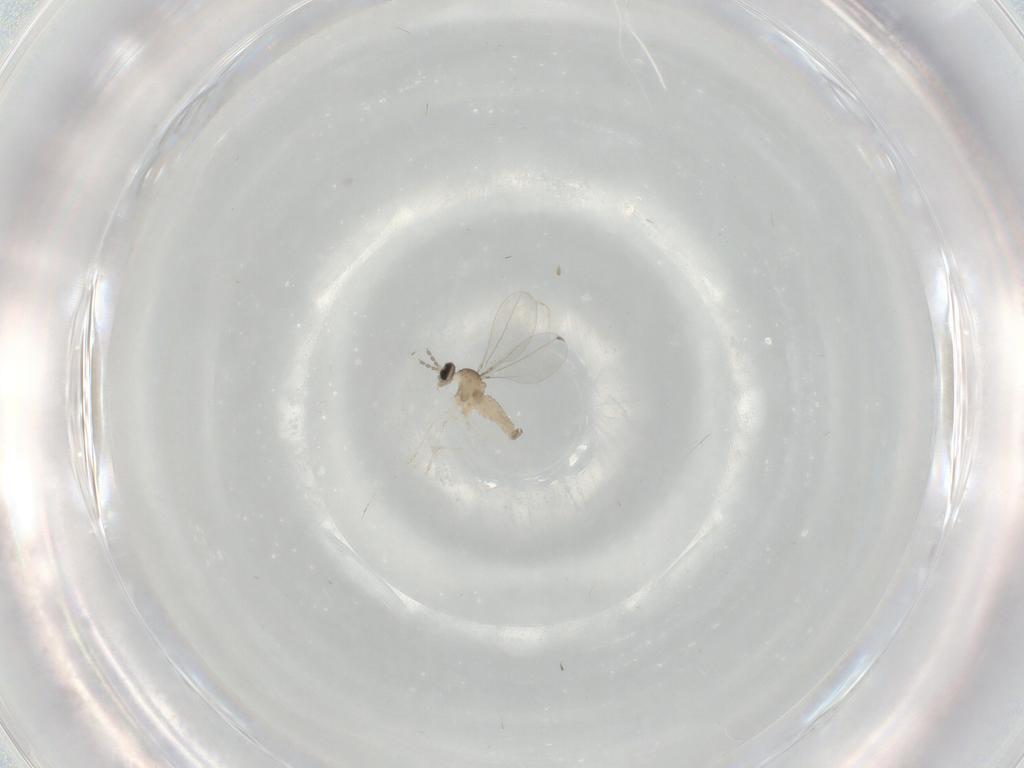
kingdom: Animalia
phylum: Arthropoda
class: Insecta
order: Diptera
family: Cecidomyiidae
